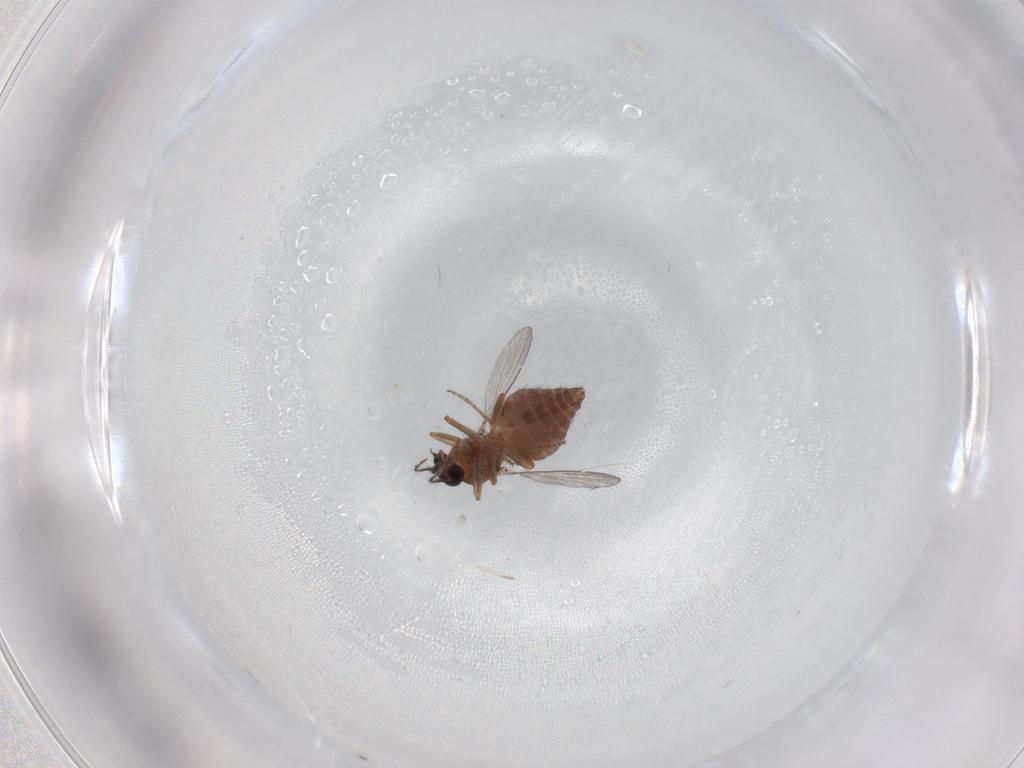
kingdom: Animalia
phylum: Arthropoda
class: Insecta
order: Diptera
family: Ceratopogonidae
